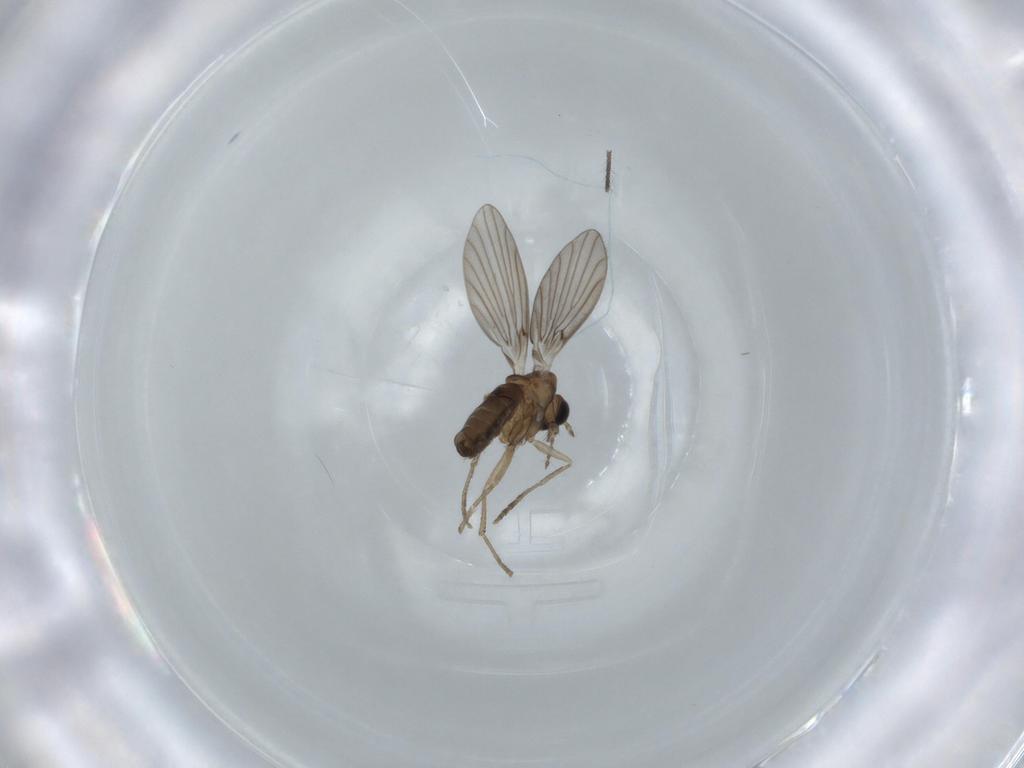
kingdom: Animalia
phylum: Arthropoda
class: Insecta
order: Diptera
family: Psychodidae
